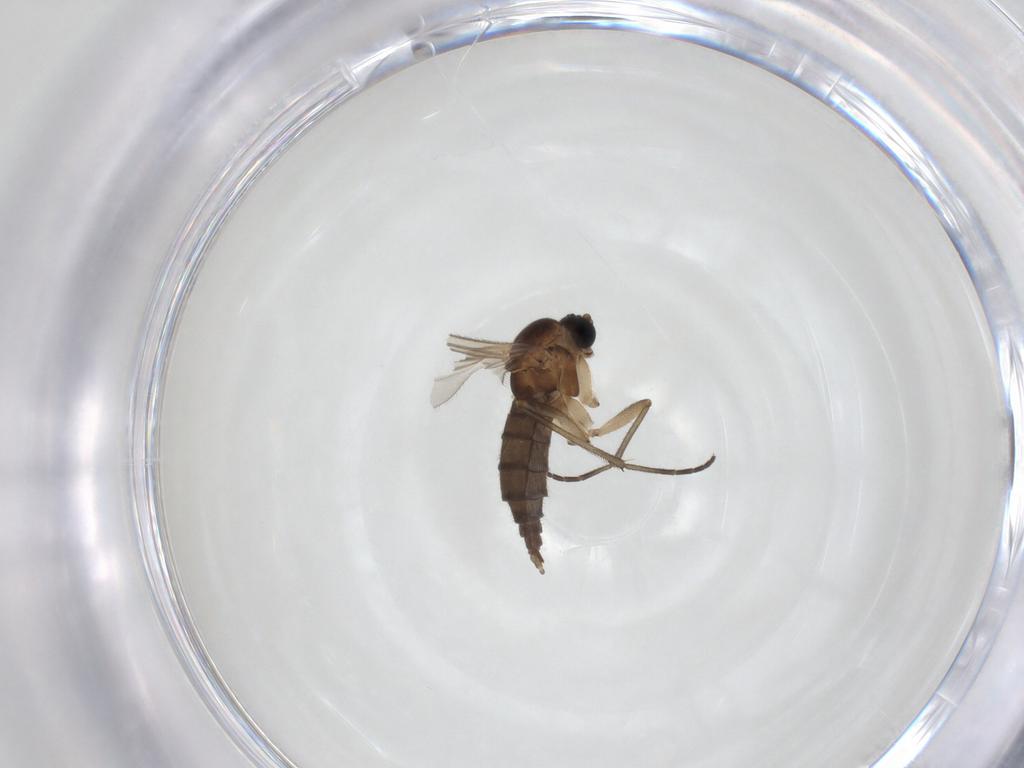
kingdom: Animalia
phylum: Arthropoda
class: Insecta
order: Diptera
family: Sciaridae
